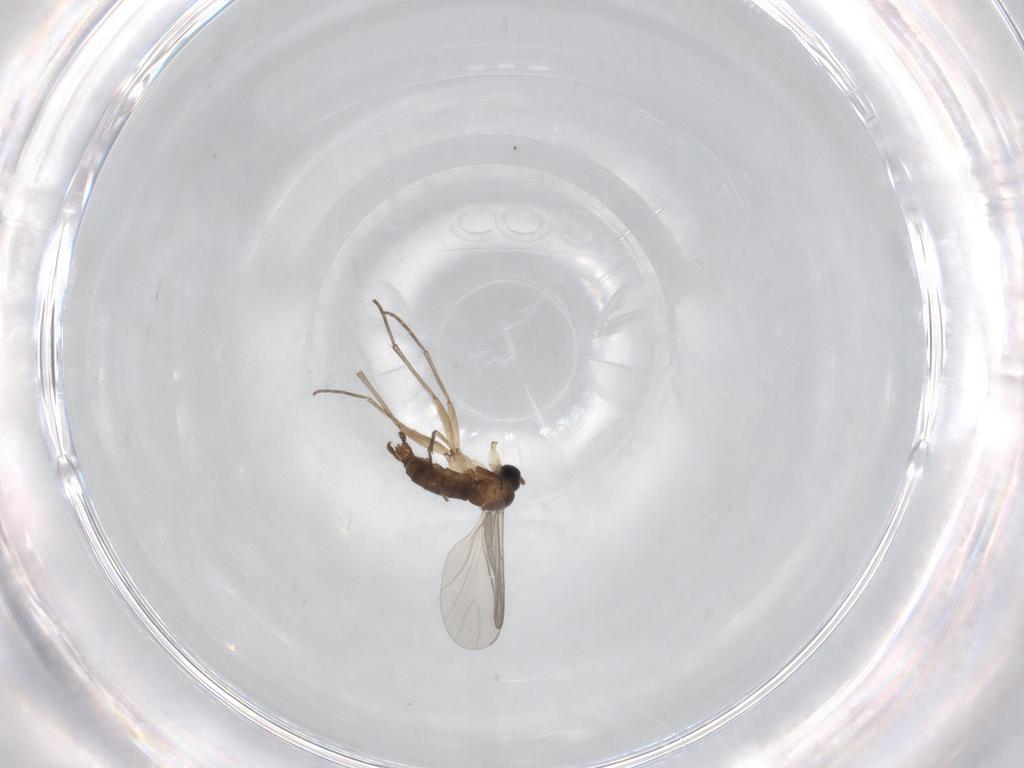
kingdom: Animalia
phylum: Arthropoda
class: Insecta
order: Diptera
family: Sciaridae
